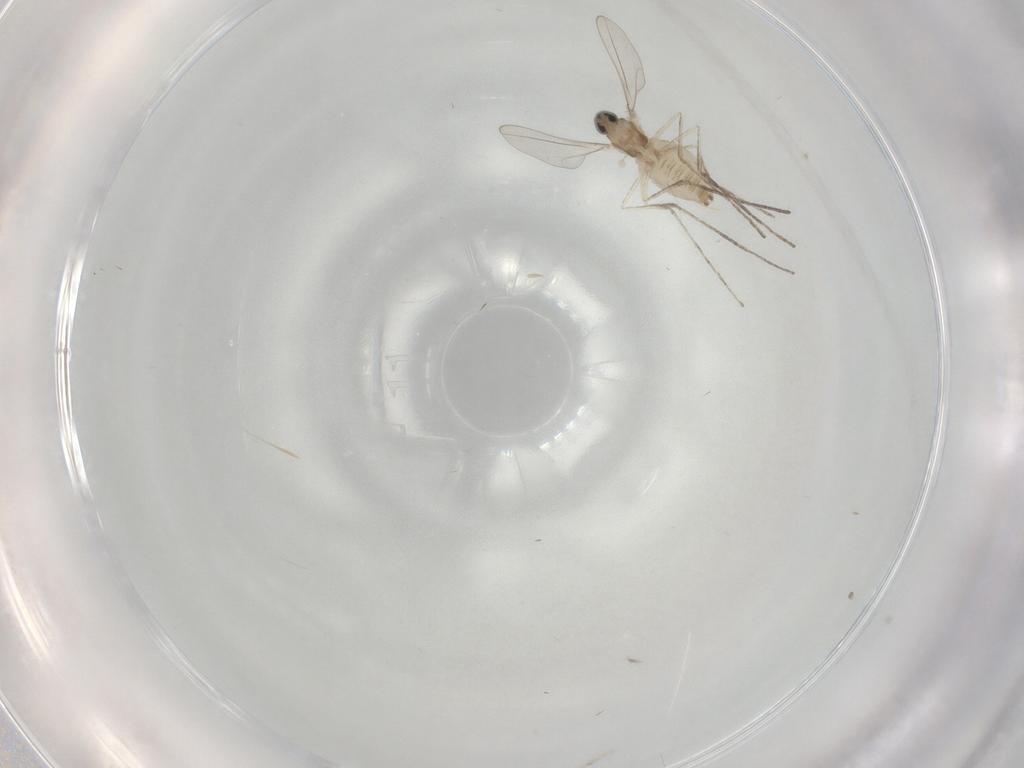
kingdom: Animalia
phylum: Arthropoda
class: Insecta
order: Diptera
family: Cecidomyiidae
